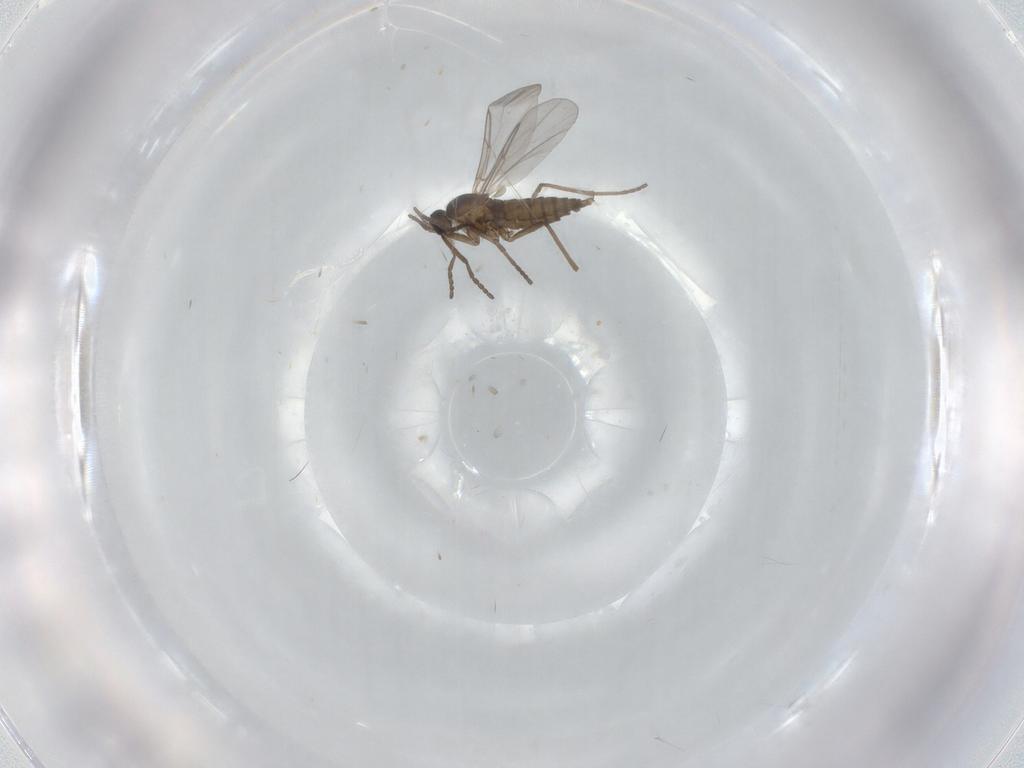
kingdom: Animalia
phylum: Arthropoda
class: Insecta
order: Diptera
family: Cecidomyiidae
